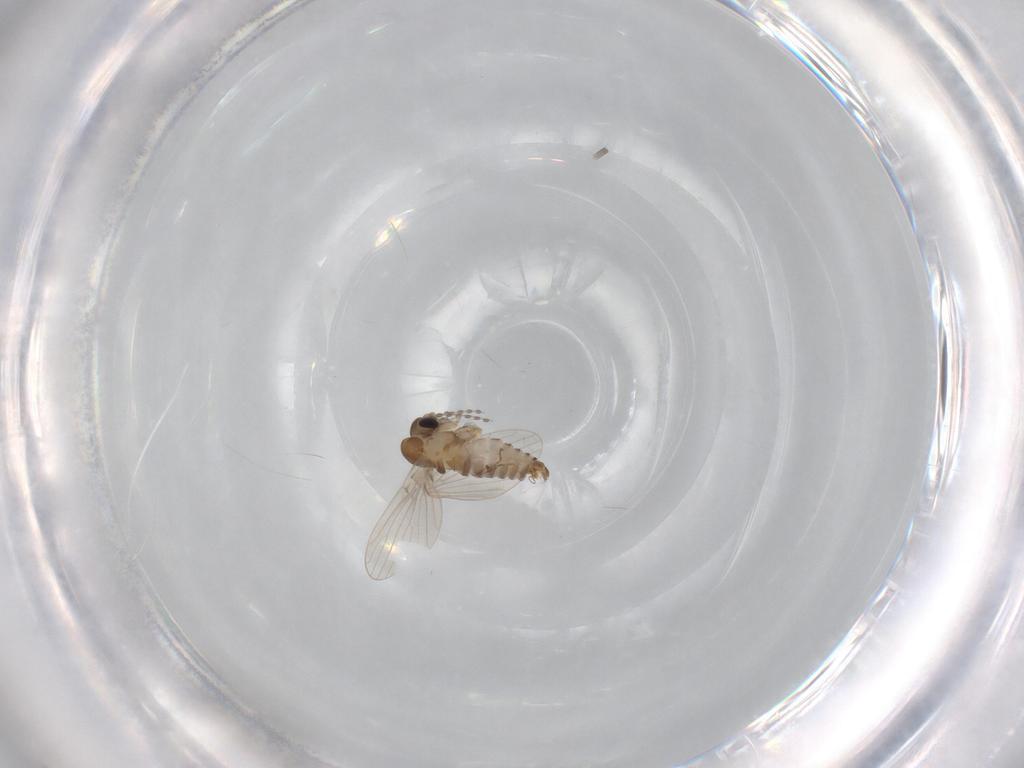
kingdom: Animalia
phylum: Arthropoda
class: Insecta
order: Diptera
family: Psychodidae
